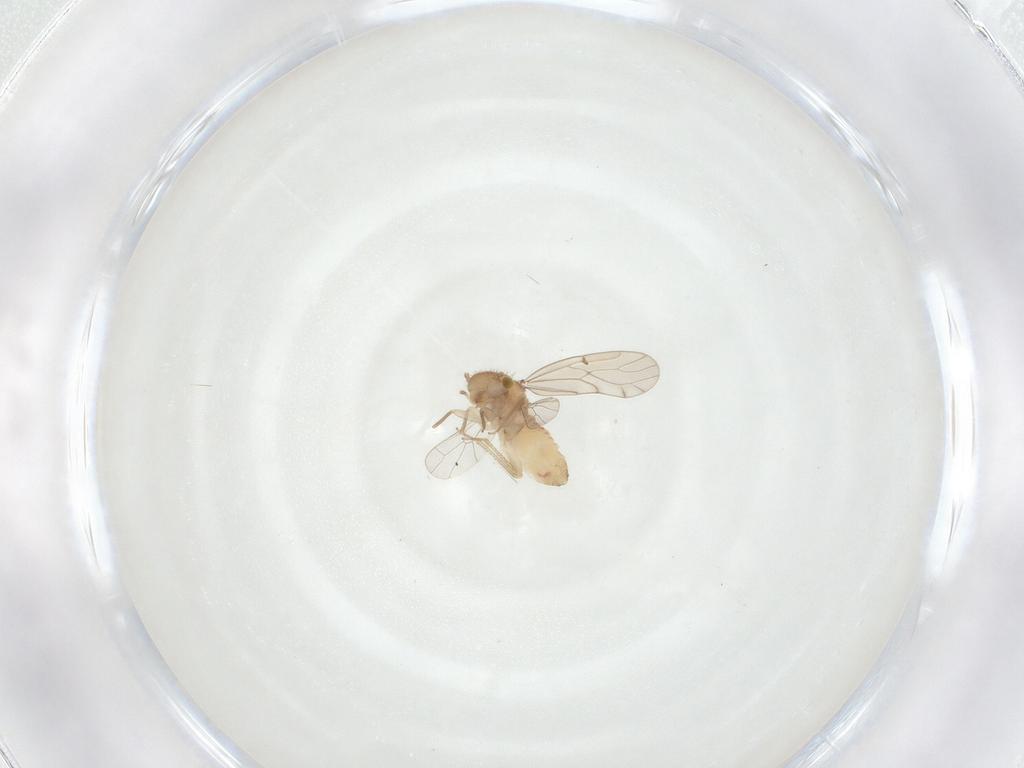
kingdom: Animalia
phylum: Arthropoda
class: Insecta
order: Psocodea
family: Ectopsocidae
